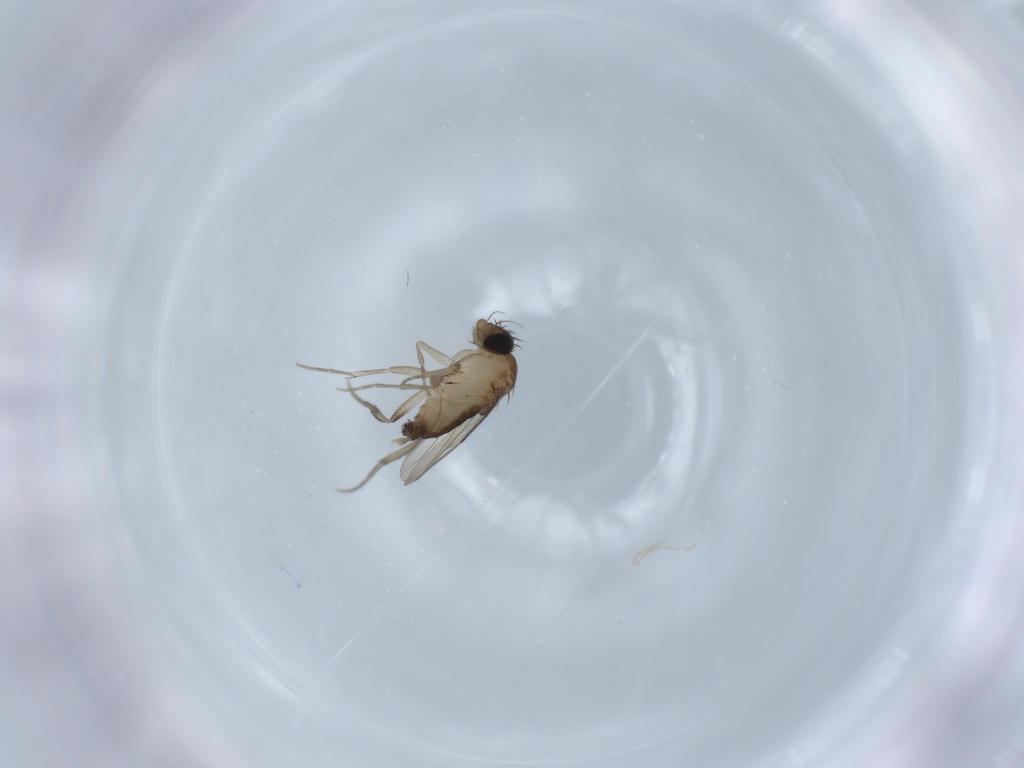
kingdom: Animalia
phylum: Arthropoda
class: Insecta
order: Diptera
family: Phoridae
